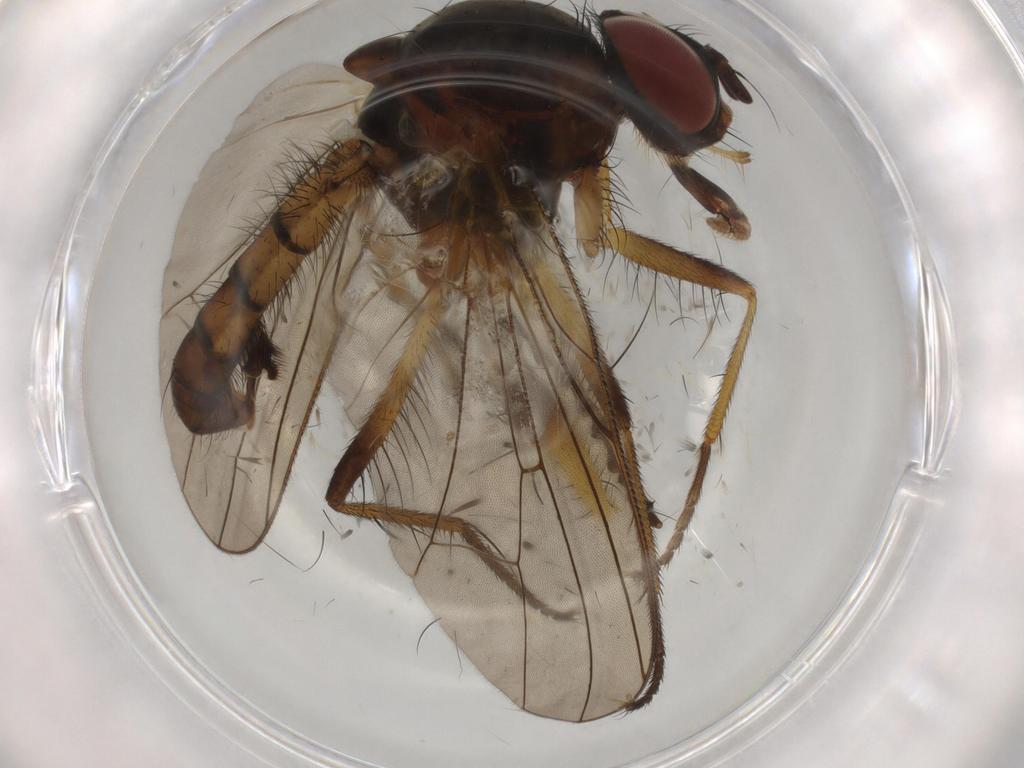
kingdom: Animalia
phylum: Arthropoda
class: Insecta
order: Diptera
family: Anthomyiidae
